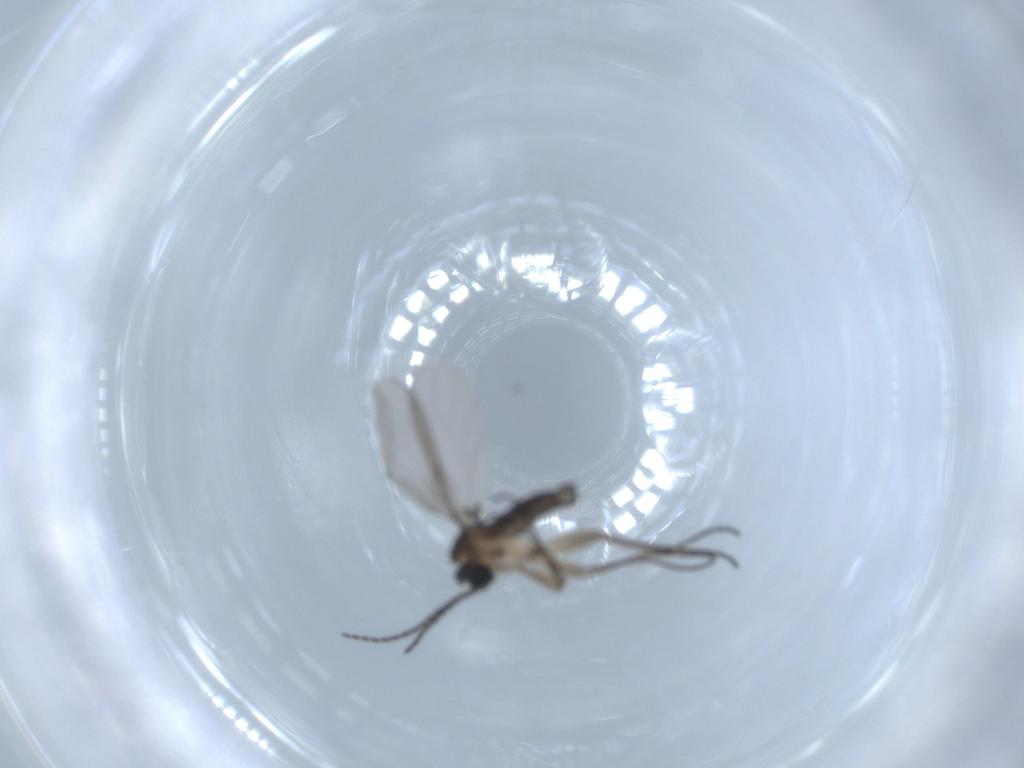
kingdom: Animalia
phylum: Arthropoda
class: Insecta
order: Diptera
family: Sciaridae
